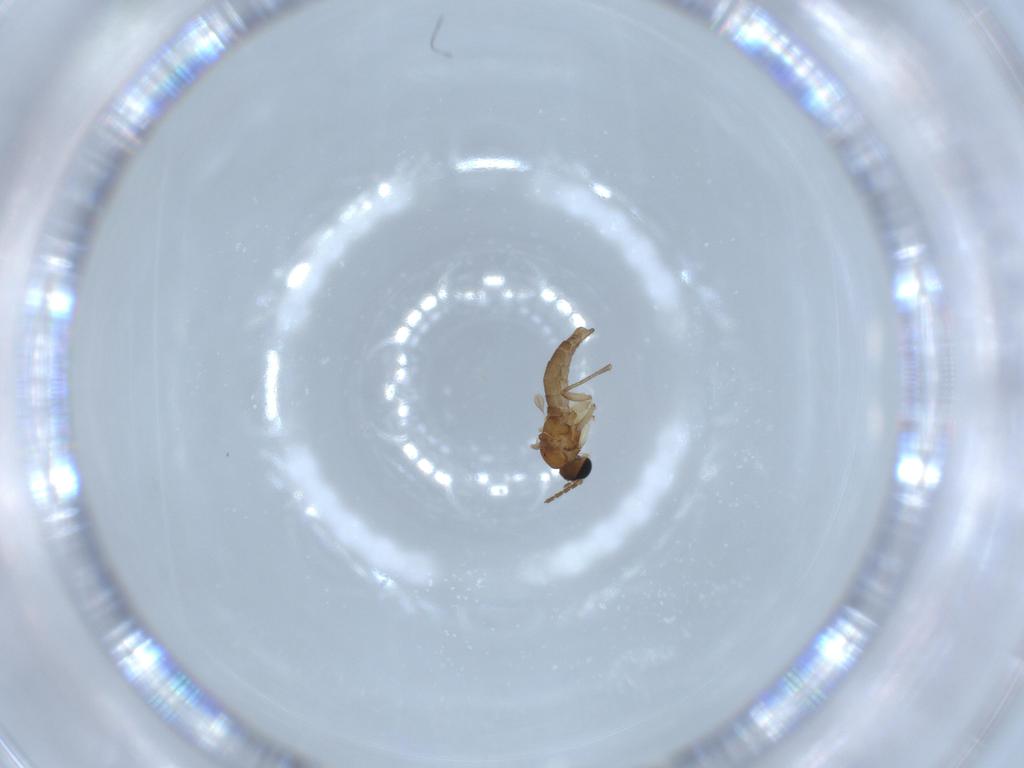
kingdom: Animalia
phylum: Arthropoda
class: Insecta
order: Diptera
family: Sciaridae
